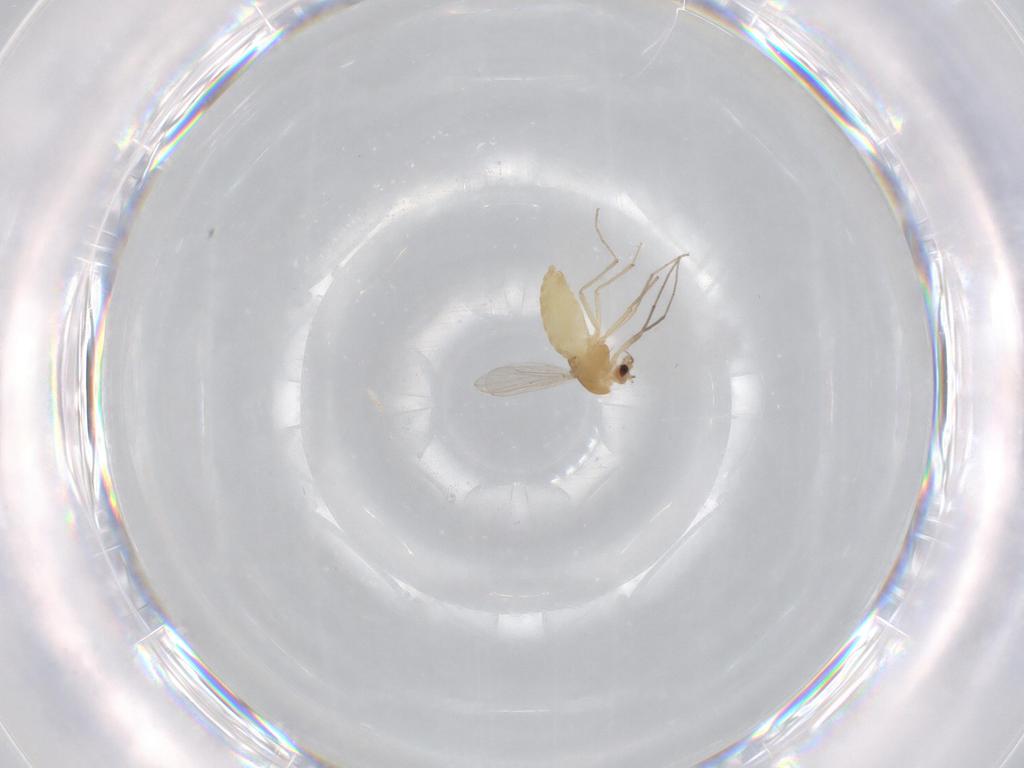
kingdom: Animalia
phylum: Arthropoda
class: Insecta
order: Diptera
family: Chironomidae
